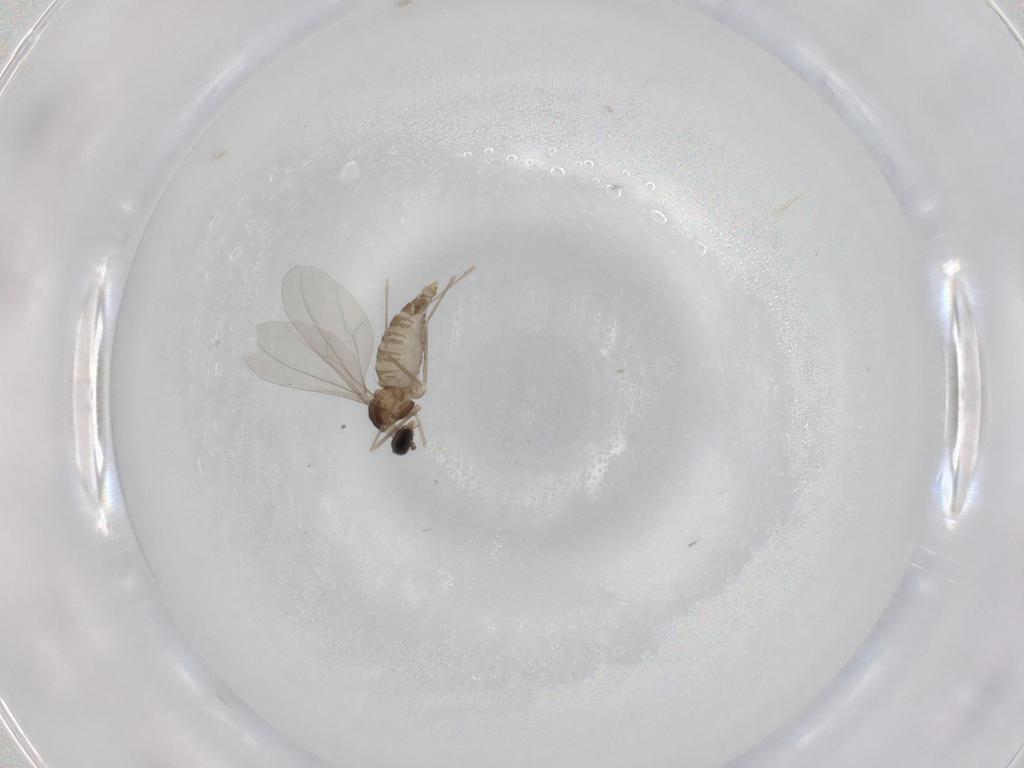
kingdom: Animalia
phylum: Arthropoda
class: Insecta
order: Diptera
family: Cecidomyiidae
